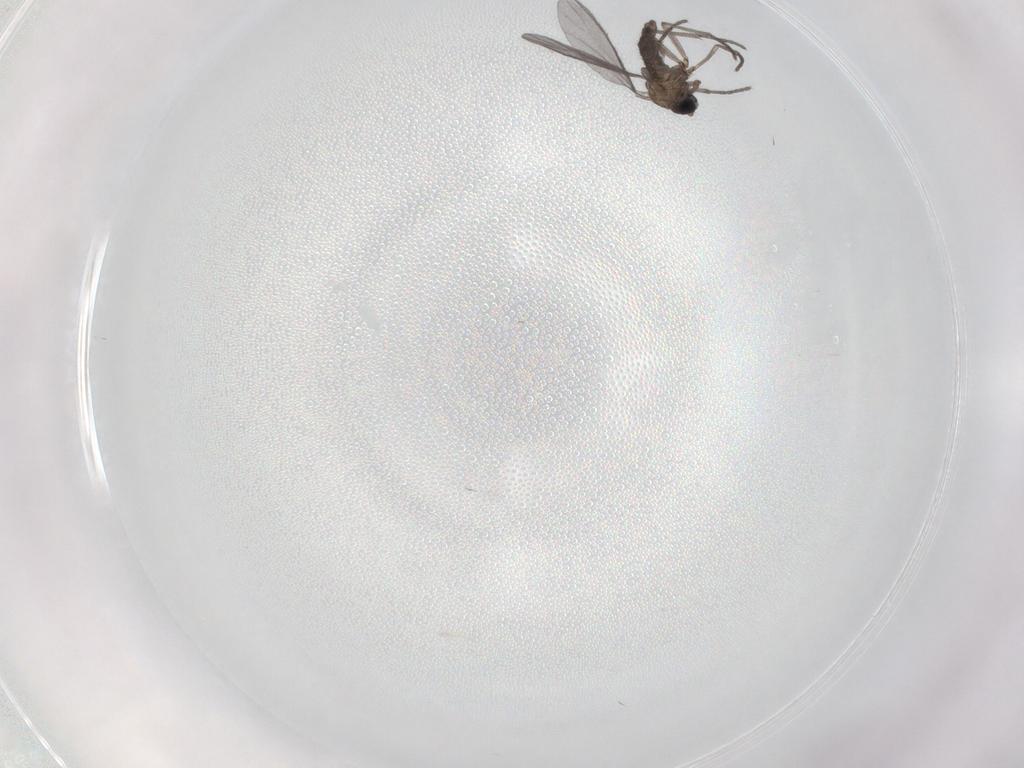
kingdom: Animalia
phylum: Arthropoda
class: Insecta
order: Diptera
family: Sciaridae
